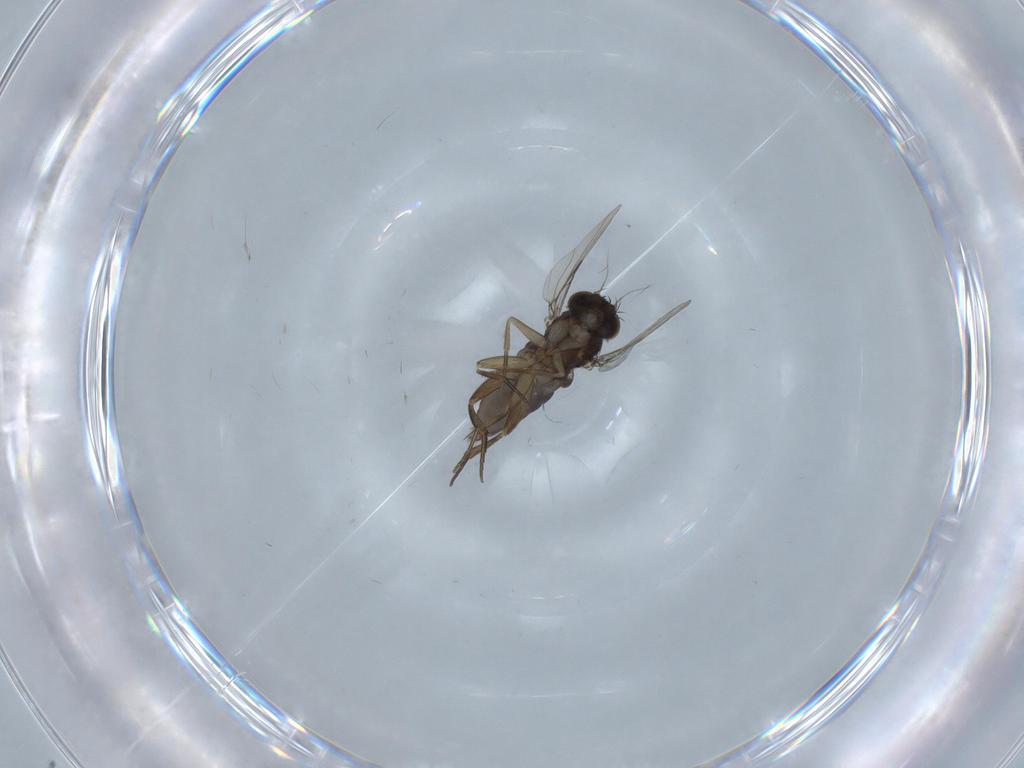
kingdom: Animalia
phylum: Arthropoda
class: Insecta
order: Diptera
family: Phoridae
